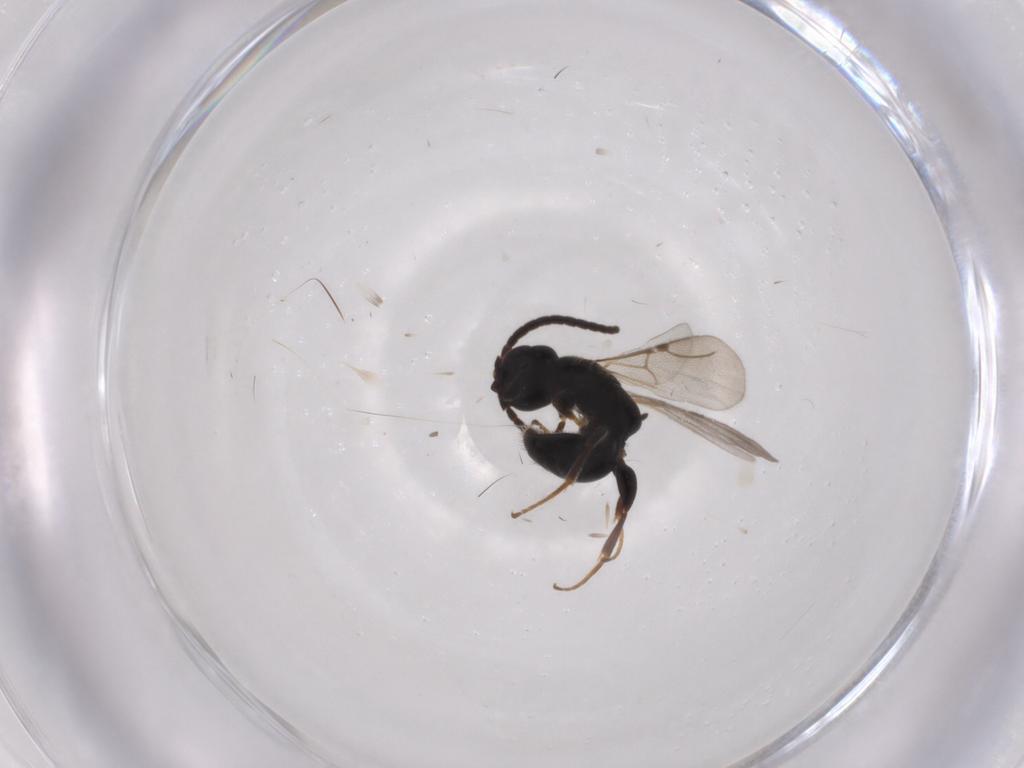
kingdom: Animalia
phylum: Arthropoda
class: Insecta
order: Hymenoptera
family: Bethylidae
